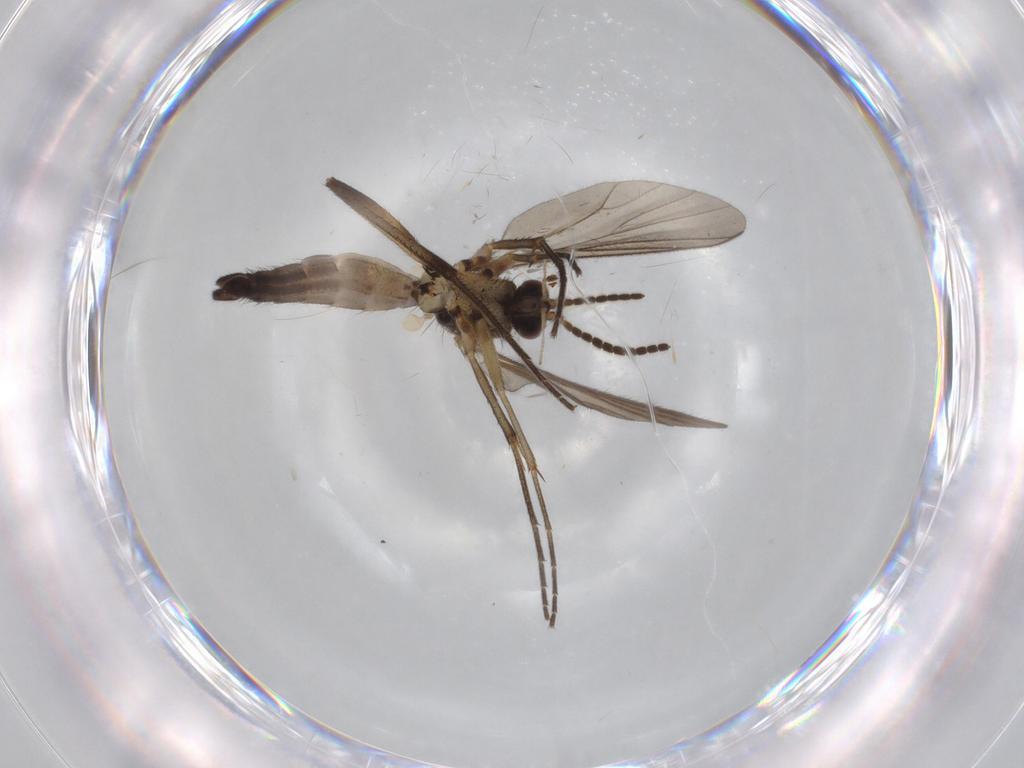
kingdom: Animalia
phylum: Arthropoda
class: Insecta
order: Diptera
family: Mycetophilidae
